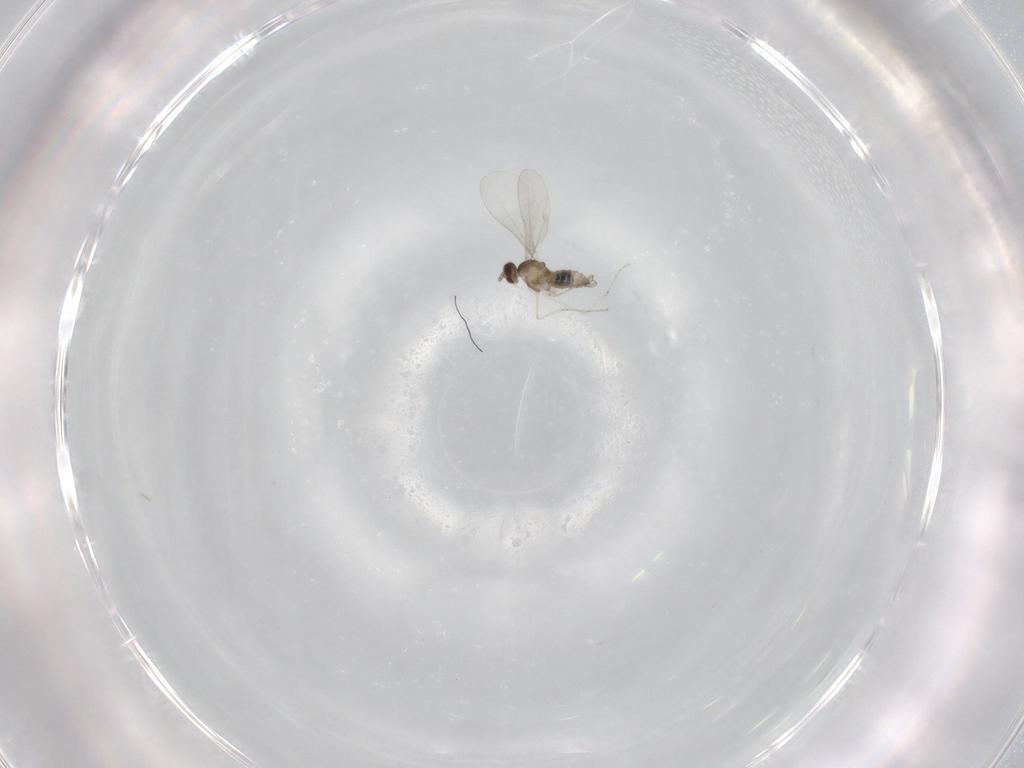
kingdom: Animalia
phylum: Arthropoda
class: Insecta
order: Diptera
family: Cecidomyiidae
